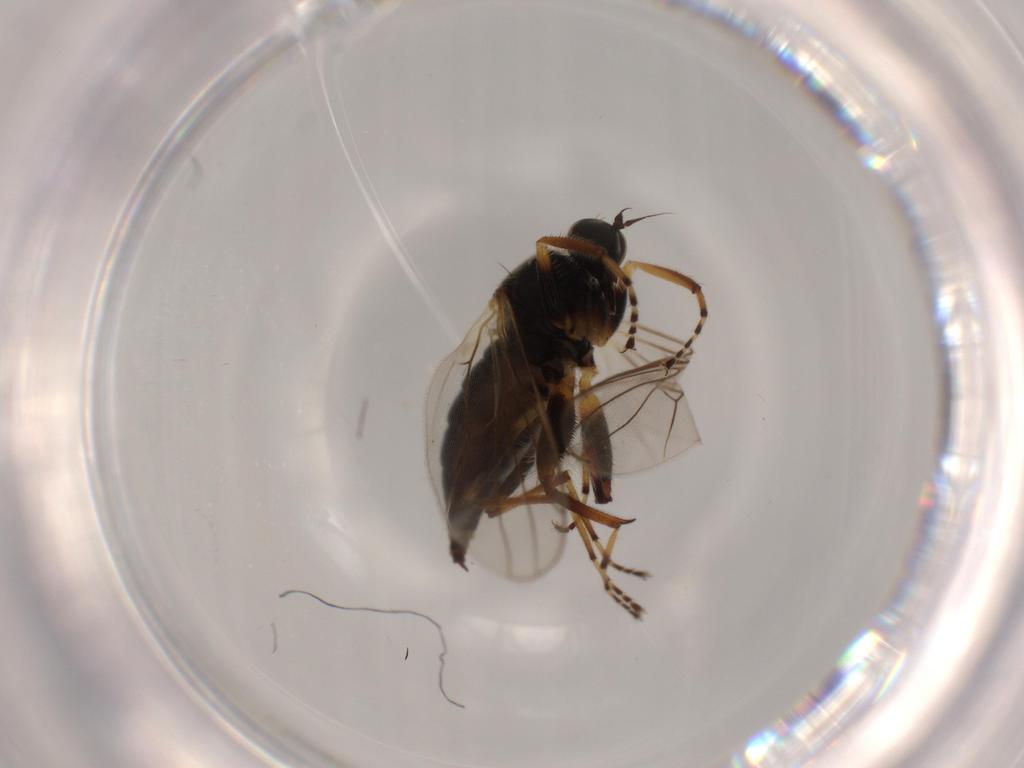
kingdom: Animalia
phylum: Arthropoda
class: Insecta
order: Diptera
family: Hybotidae
